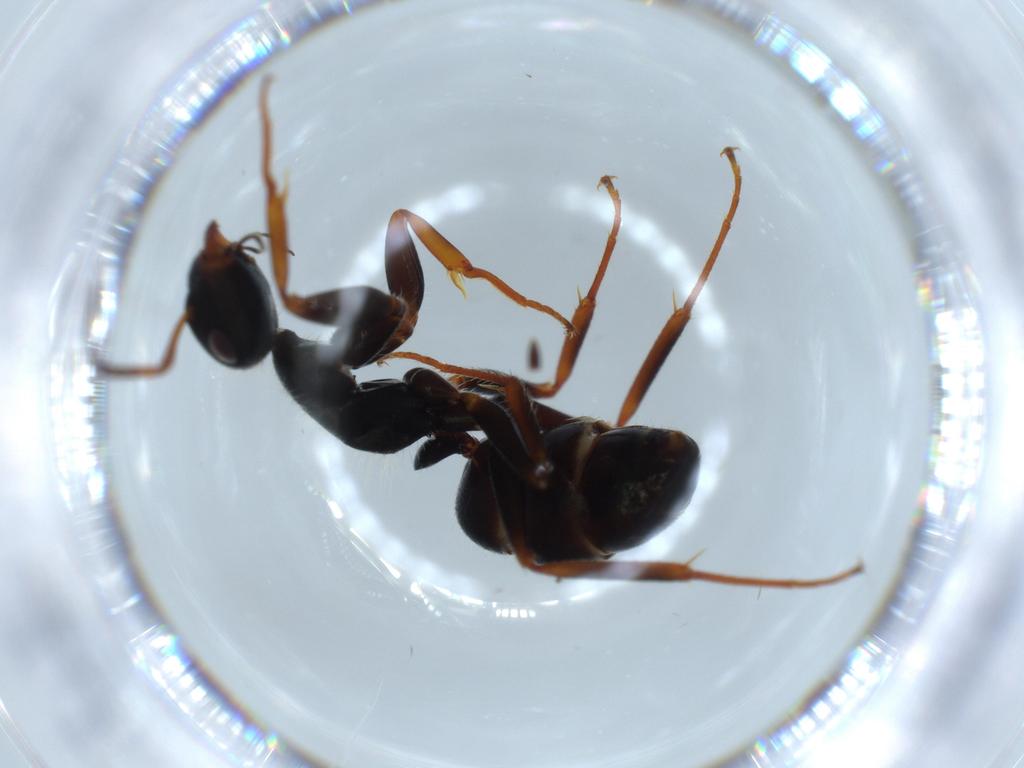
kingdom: Animalia
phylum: Arthropoda
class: Insecta
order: Hymenoptera
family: Formicidae
